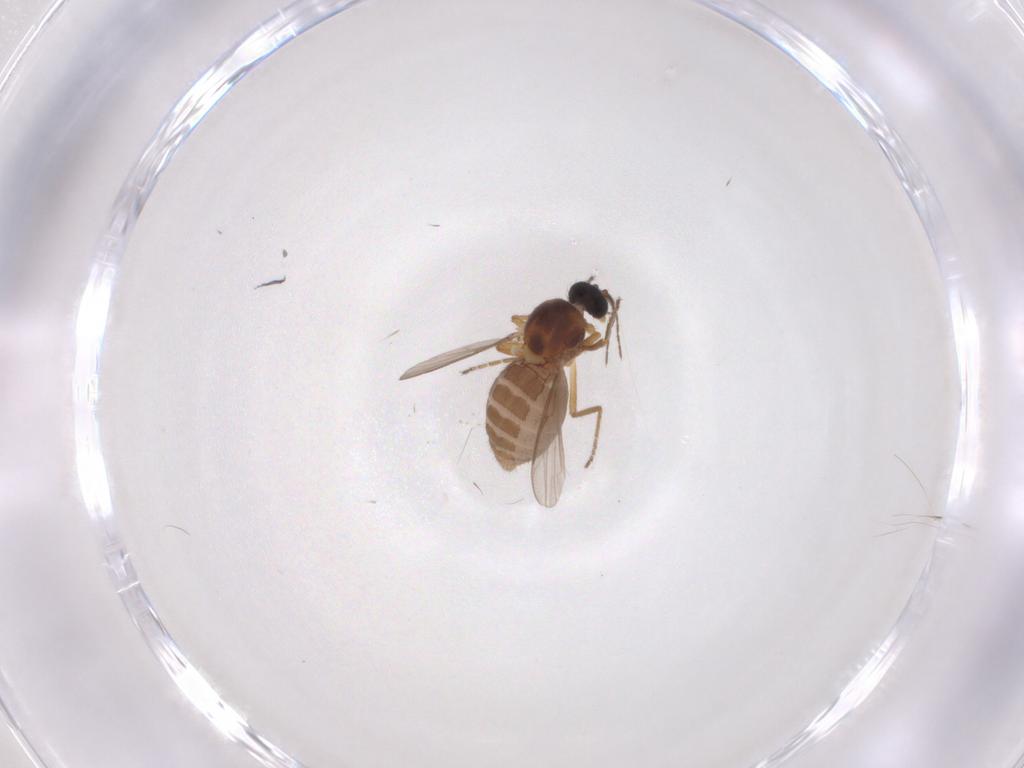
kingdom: Animalia
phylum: Arthropoda
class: Insecta
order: Diptera
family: Ceratopogonidae
